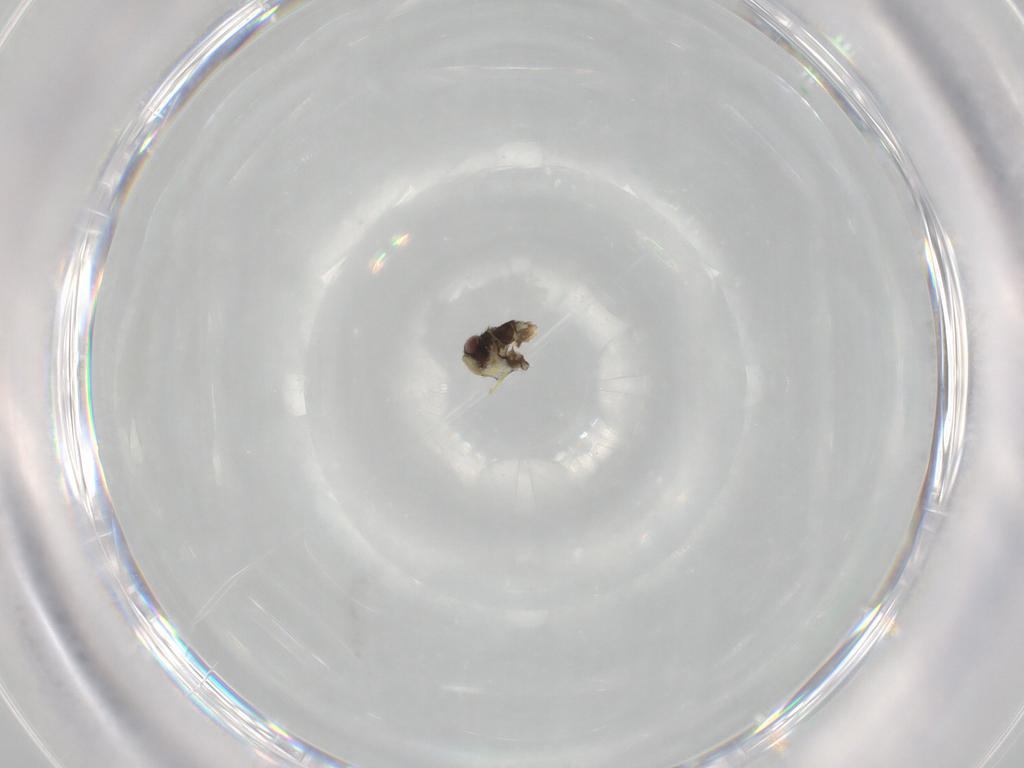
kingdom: Animalia
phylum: Arthropoda
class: Insecta
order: Hymenoptera
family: Aphelinidae
